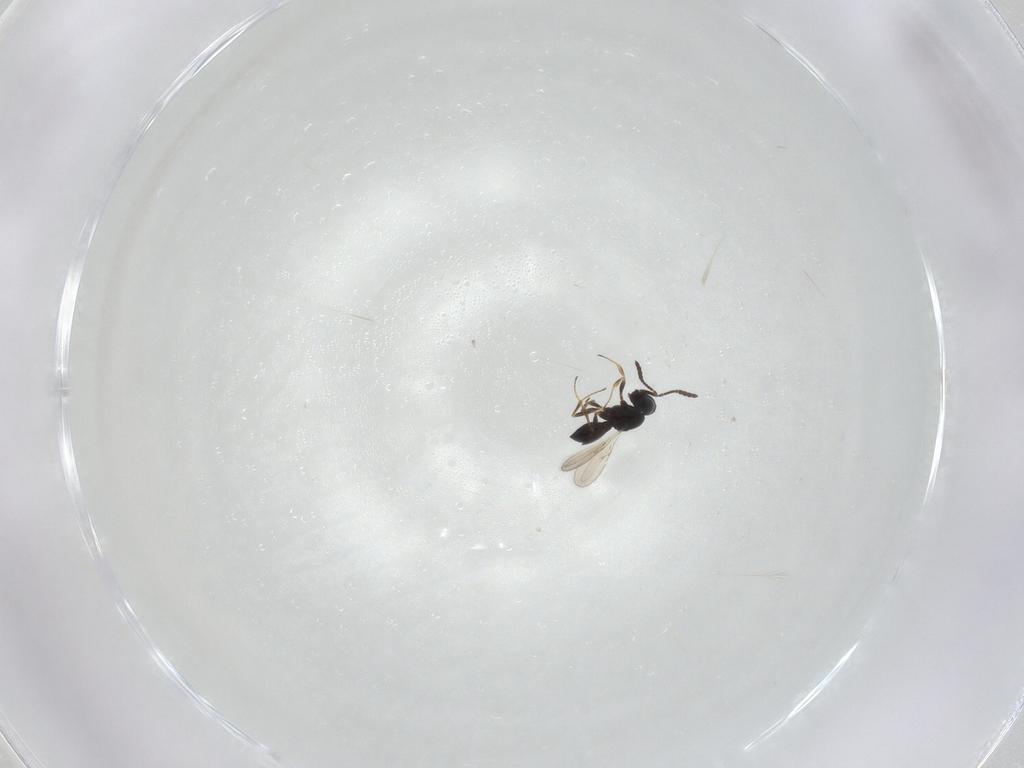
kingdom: Animalia
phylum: Arthropoda
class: Insecta
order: Hymenoptera
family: Scelionidae
